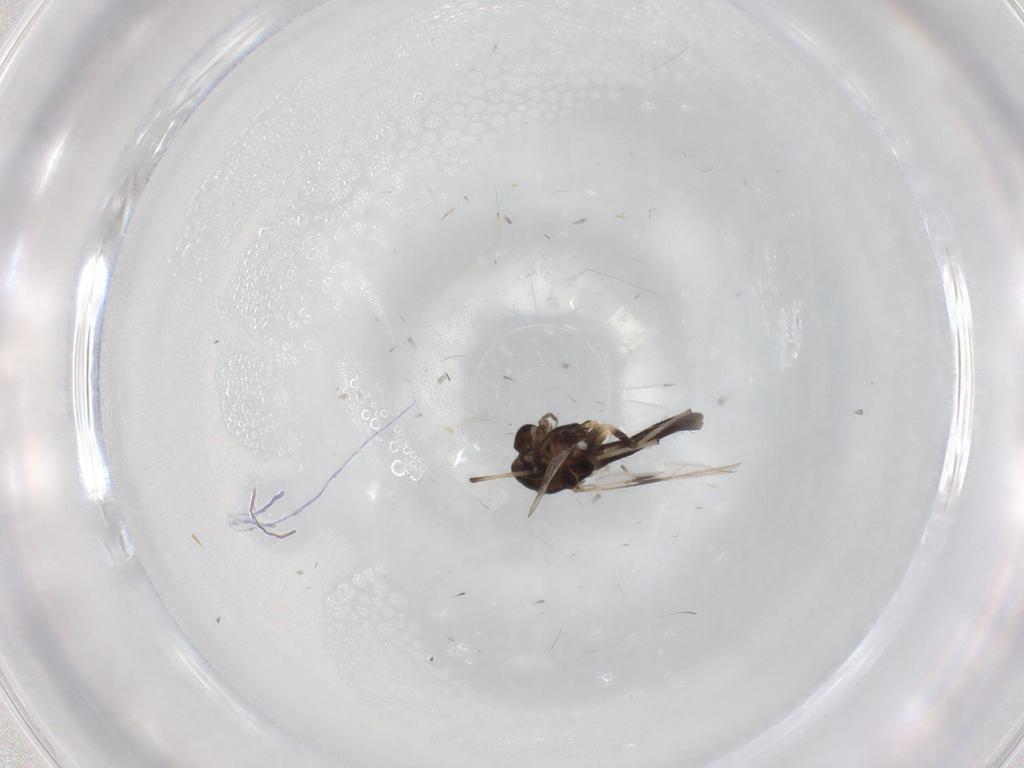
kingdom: Animalia
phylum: Arthropoda
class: Insecta
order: Diptera
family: Chironomidae
